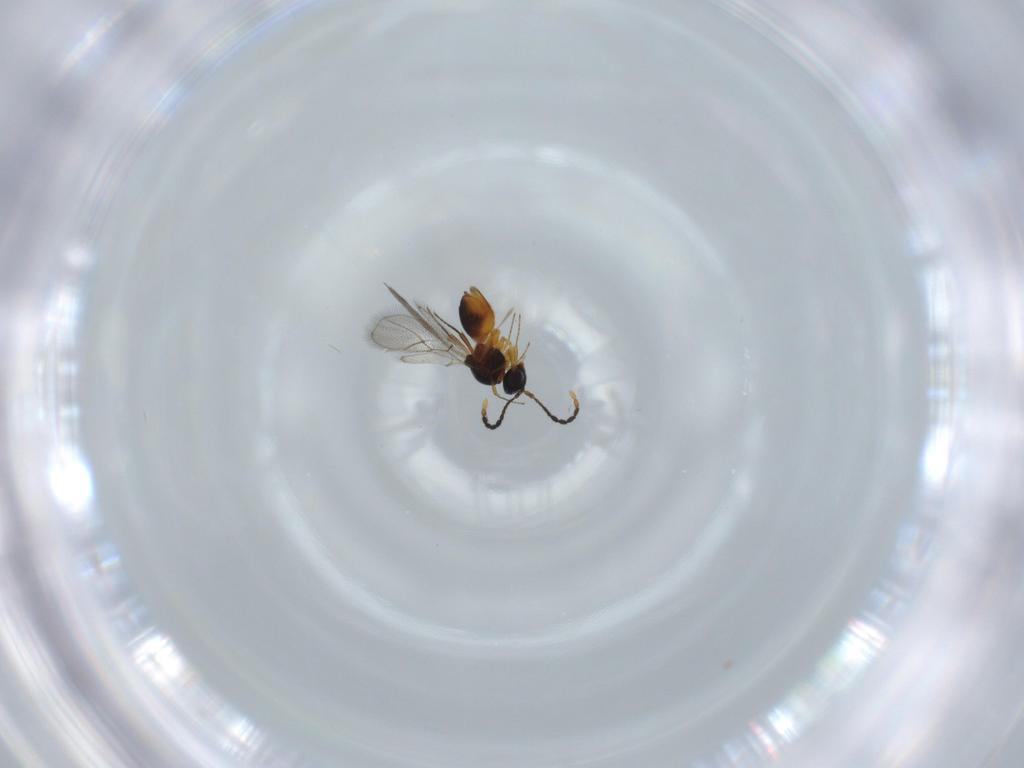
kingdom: Animalia
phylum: Arthropoda
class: Insecta
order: Hymenoptera
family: Figitidae
